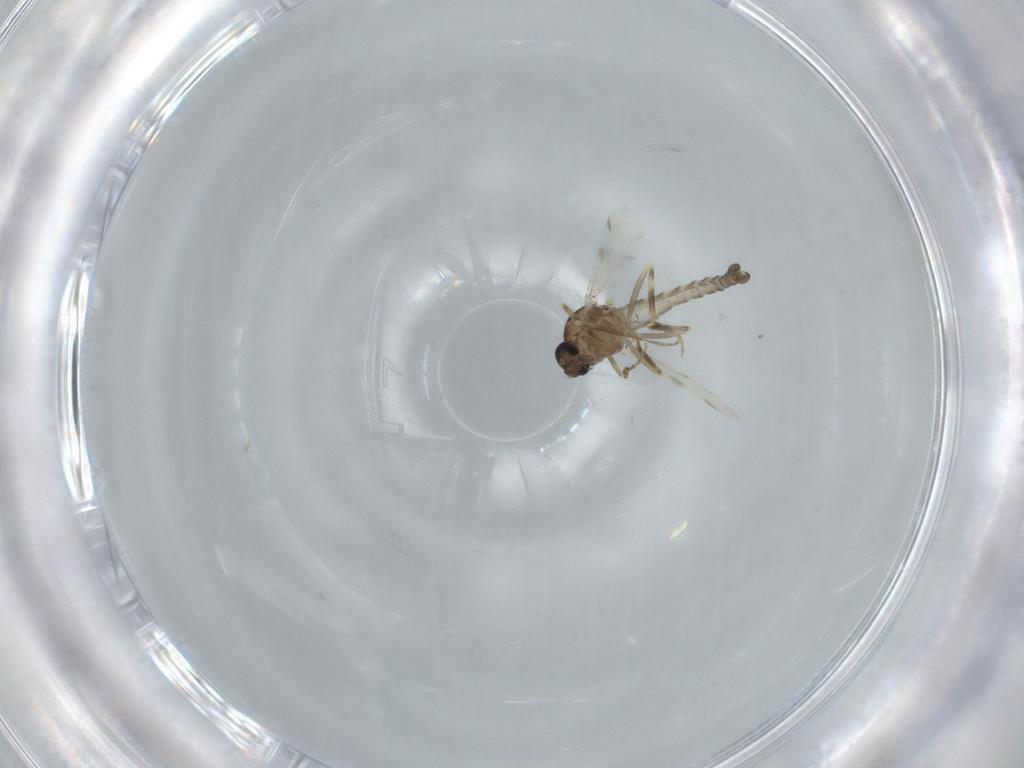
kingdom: Animalia
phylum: Arthropoda
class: Insecta
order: Diptera
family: Ceratopogonidae
